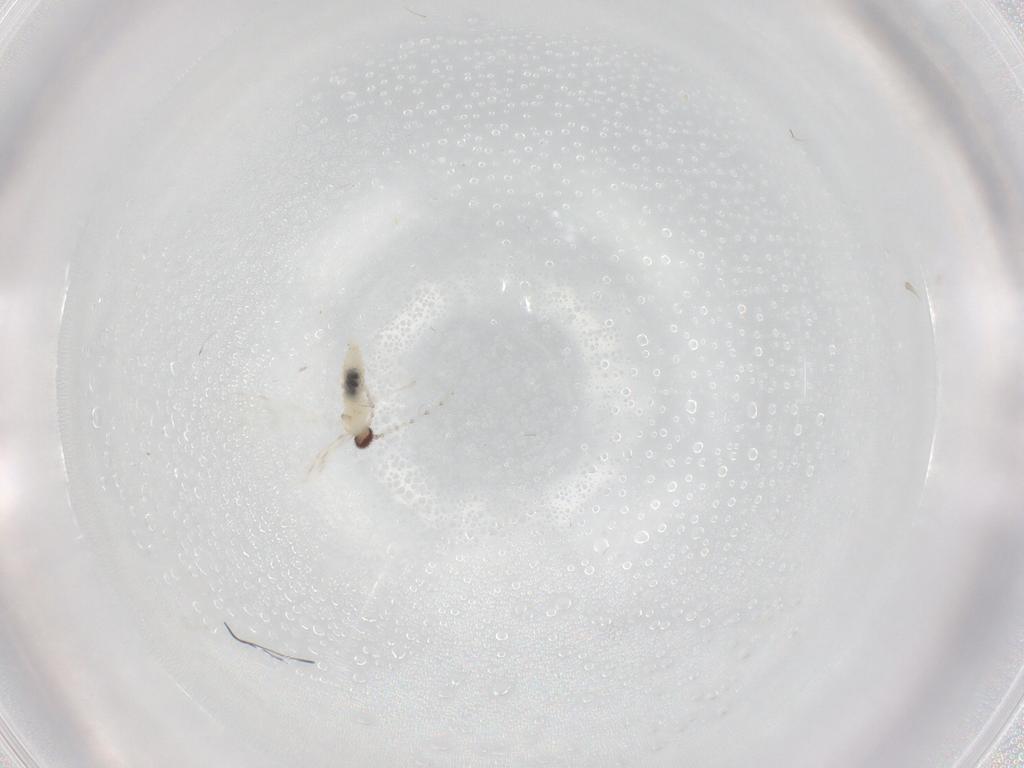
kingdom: Animalia
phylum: Arthropoda
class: Insecta
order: Diptera
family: Cecidomyiidae
